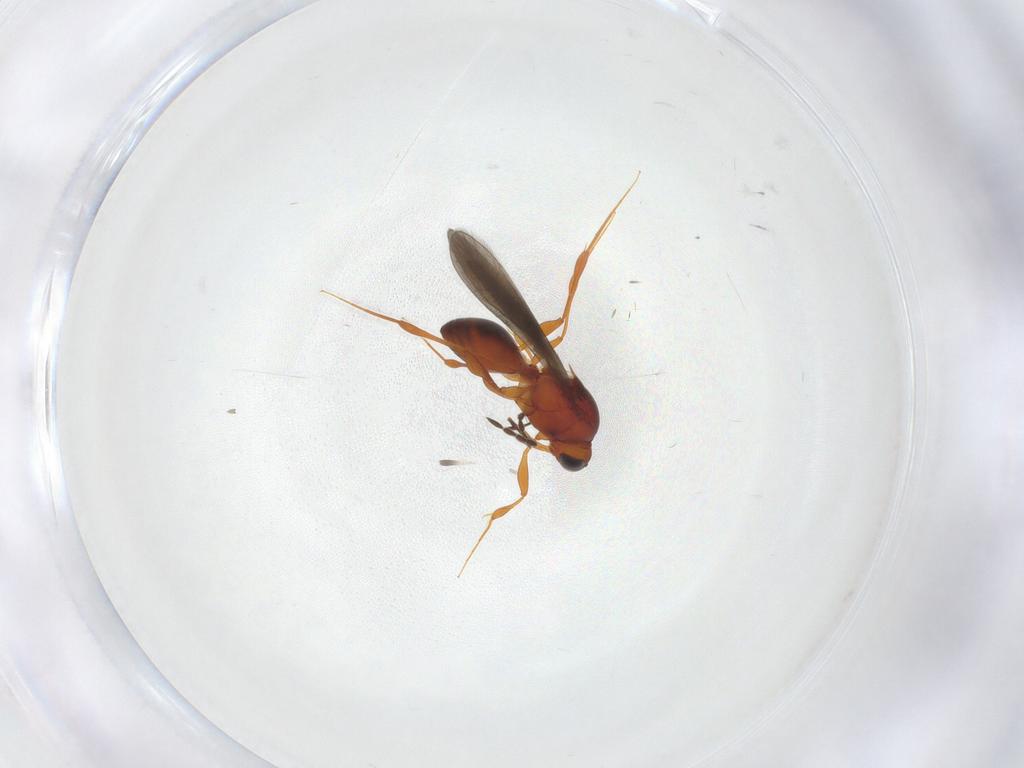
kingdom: Animalia
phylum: Arthropoda
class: Insecta
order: Hymenoptera
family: Platygastridae
